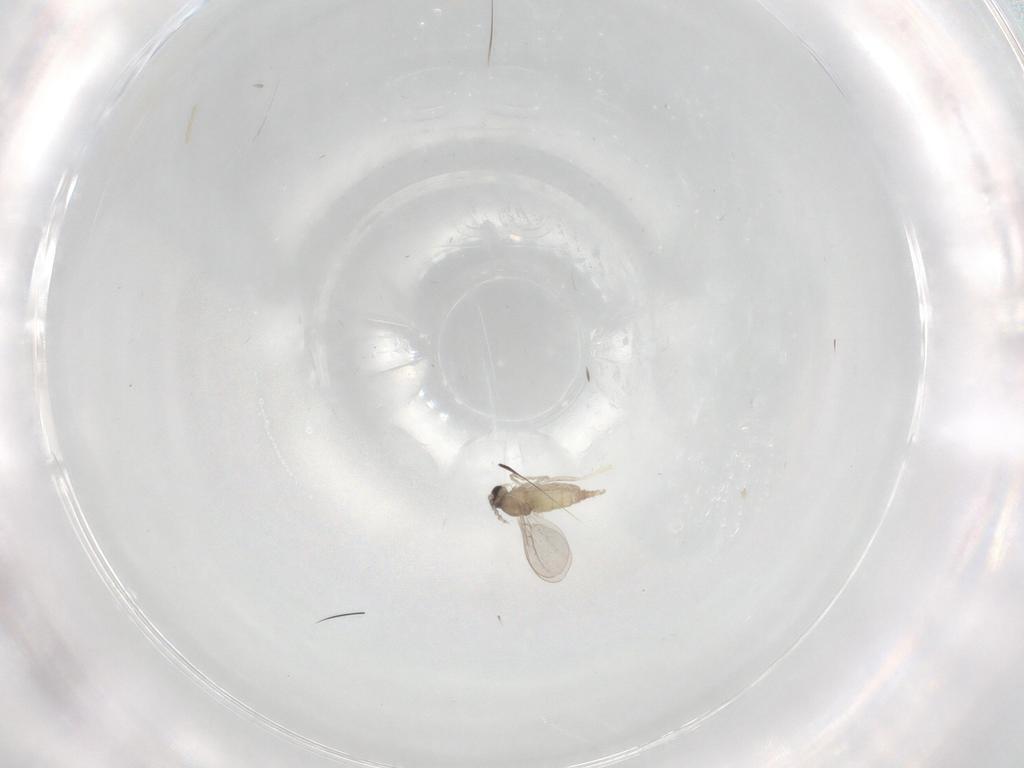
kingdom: Animalia
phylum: Arthropoda
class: Insecta
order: Diptera
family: Cecidomyiidae
